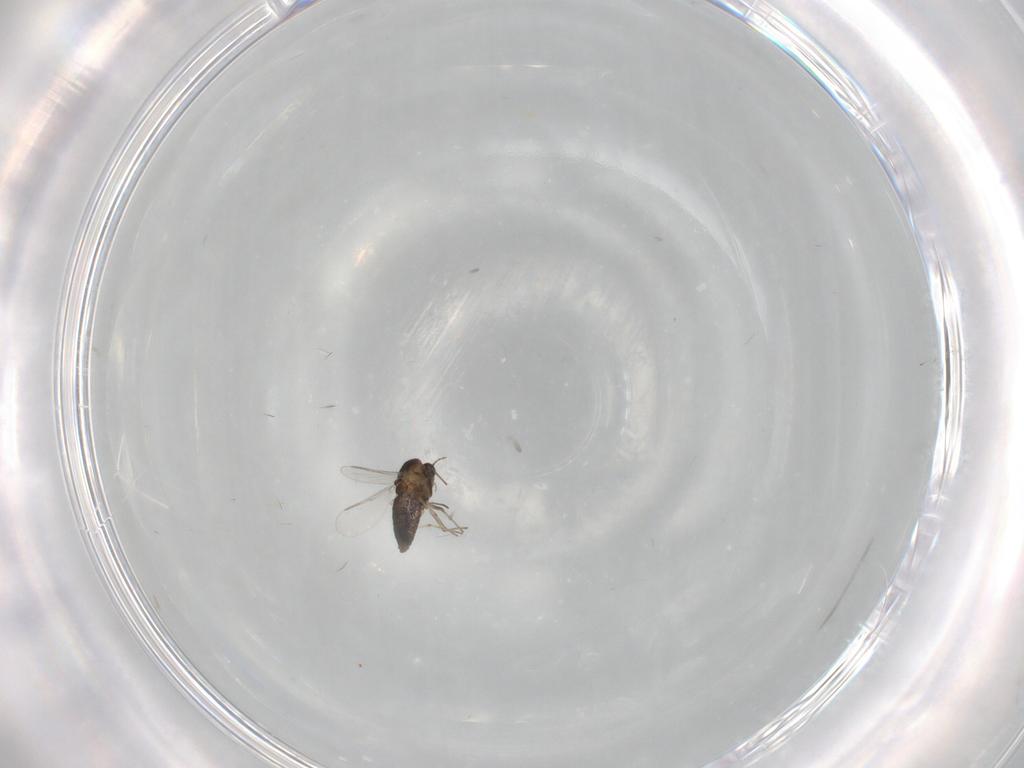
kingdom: Animalia
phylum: Arthropoda
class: Insecta
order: Diptera
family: Chironomidae
